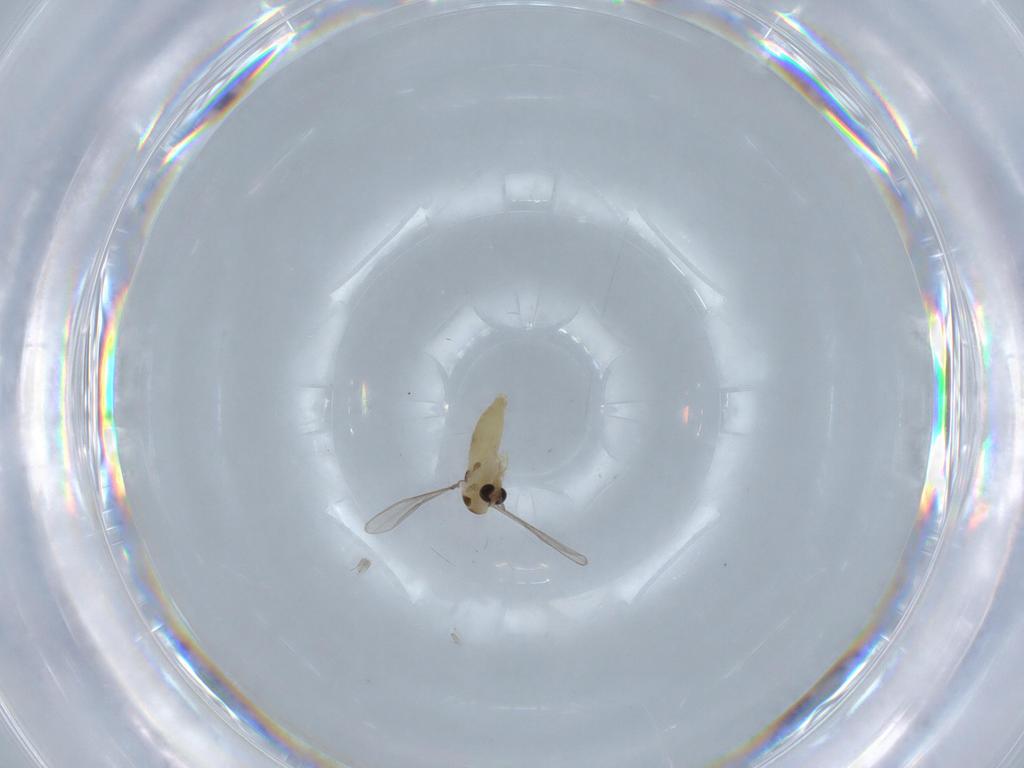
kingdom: Animalia
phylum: Arthropoda
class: Insecta
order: Diptera
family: Chironomidae
